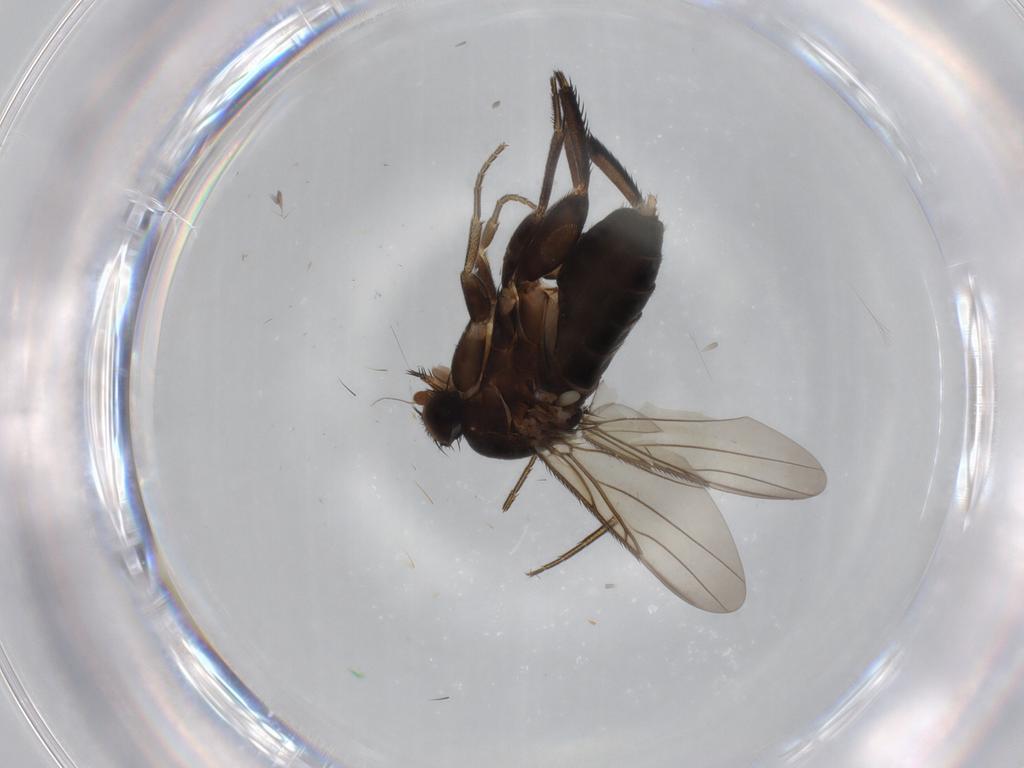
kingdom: Animalia
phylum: Arthropoda
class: Insecta
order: Diptera
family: Phoridae
